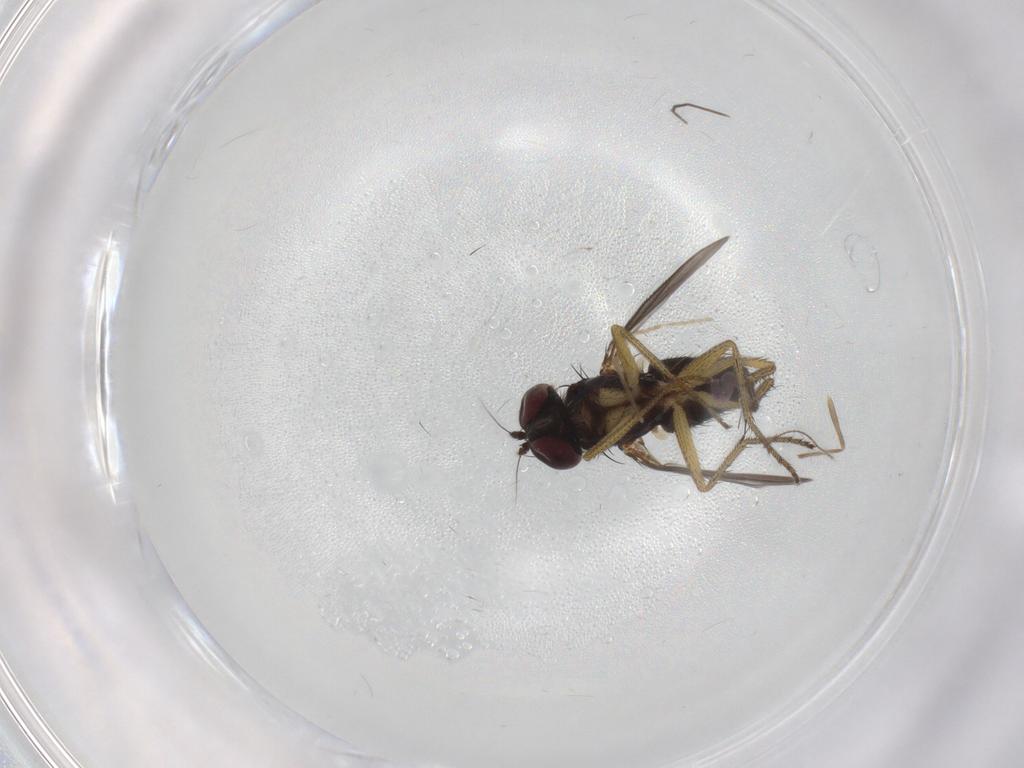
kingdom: Animalia
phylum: Arthropoda
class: Insecta
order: Diptera
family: Dolichopodidae
